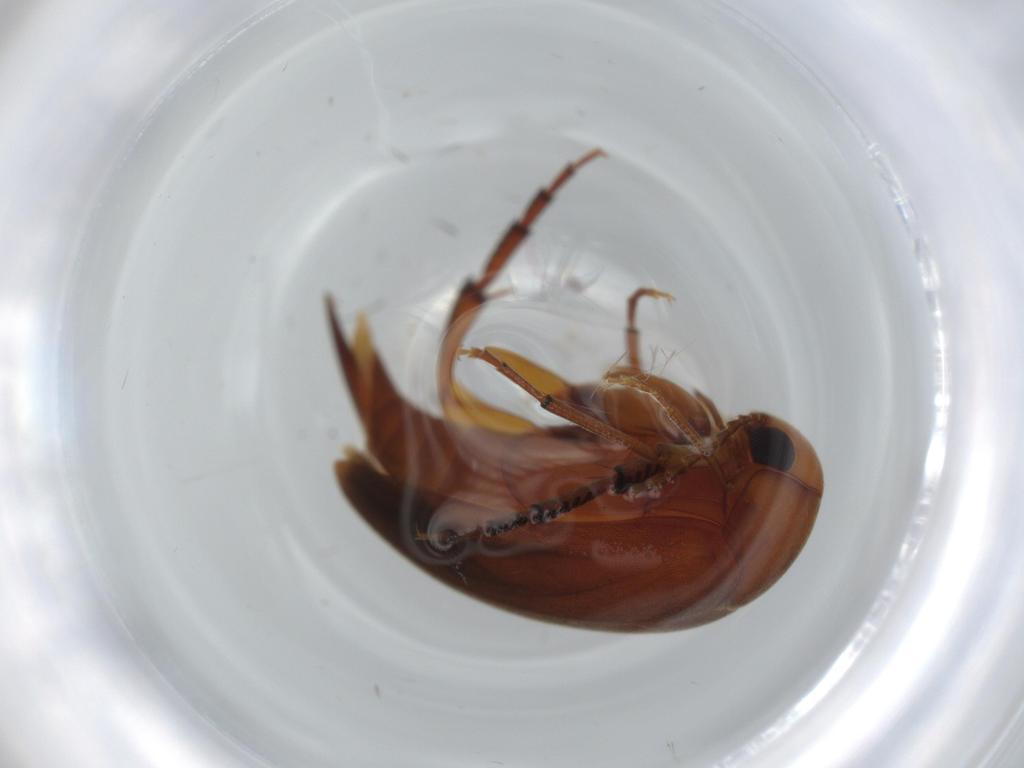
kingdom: Animalia
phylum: Arthropoda
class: Insecta
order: Coleoptera
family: Mordellidae
